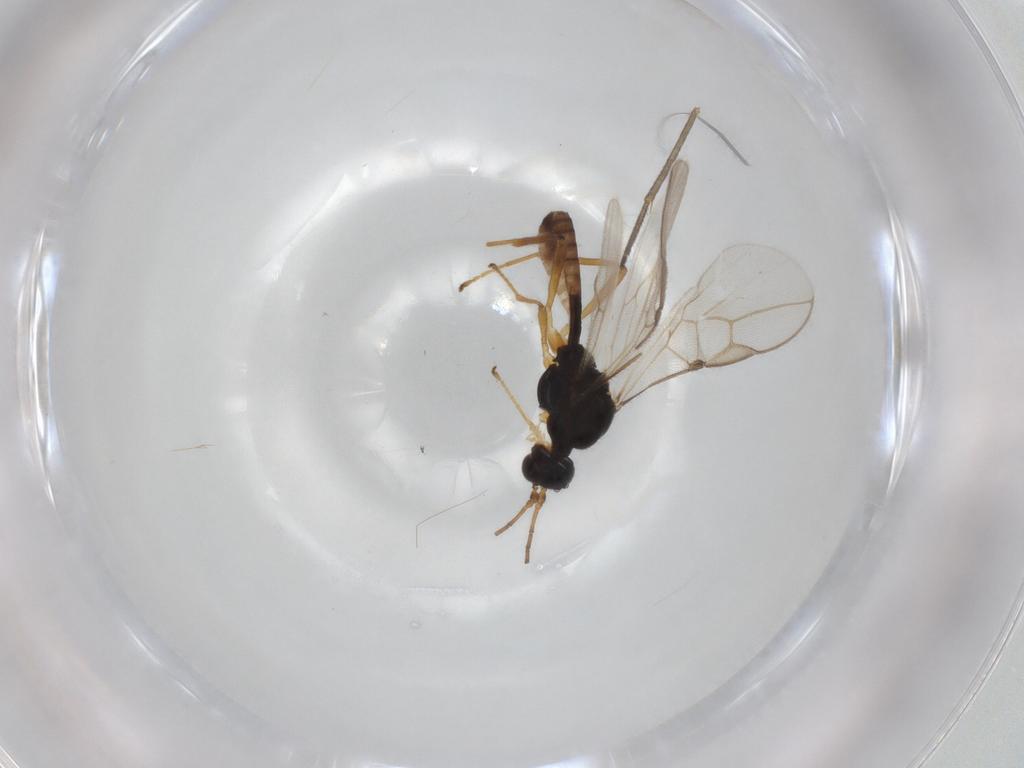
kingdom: Animalia
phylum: Arthropoda
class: Insecta
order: Hymenoptera
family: Braconidae
